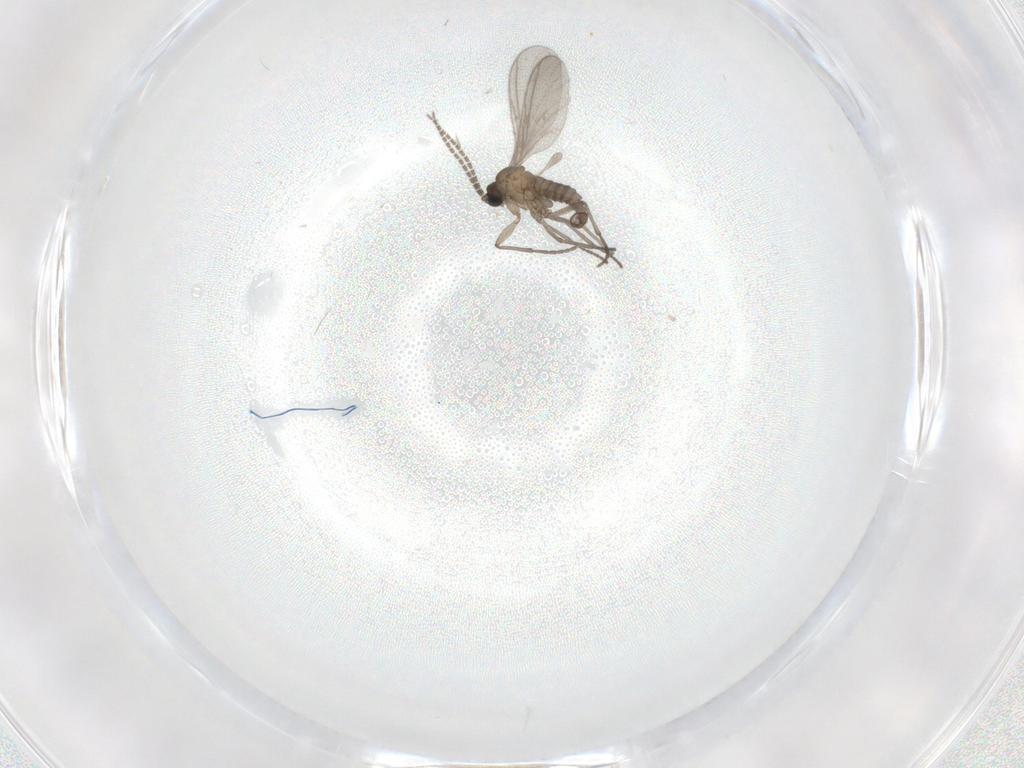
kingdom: Animalia
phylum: Arthropoda
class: Insecta
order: Diptera
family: Sciaridae
